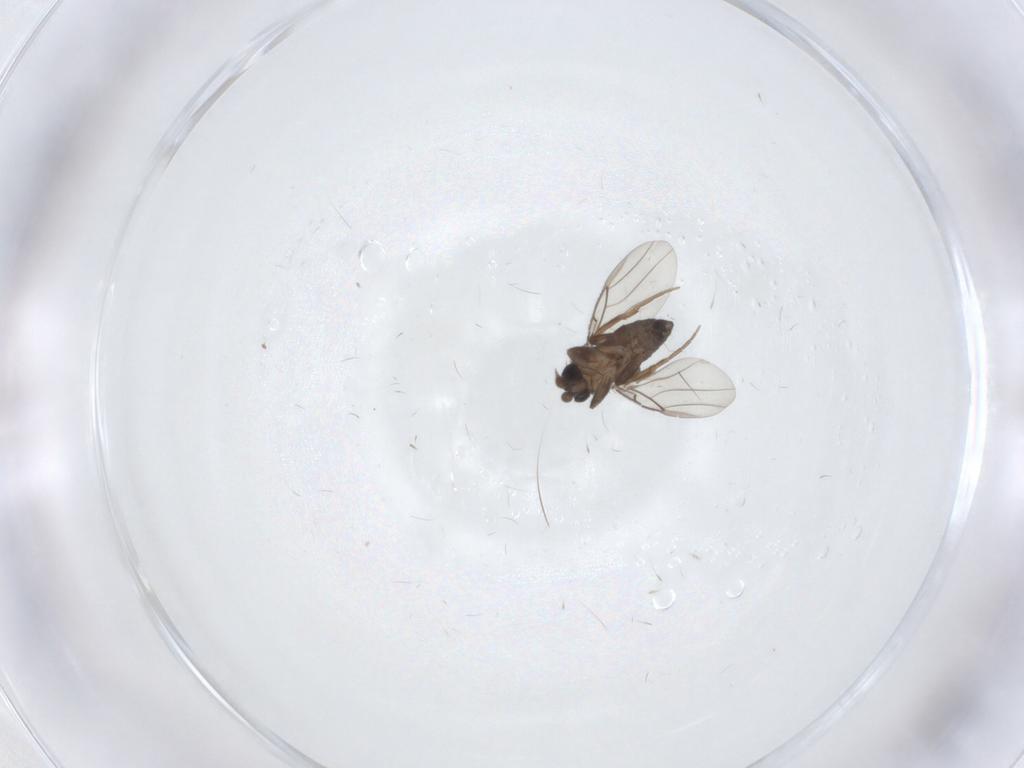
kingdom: Animalia
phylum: Arthropoda
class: Insecta
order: Diptera
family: Phoridae
